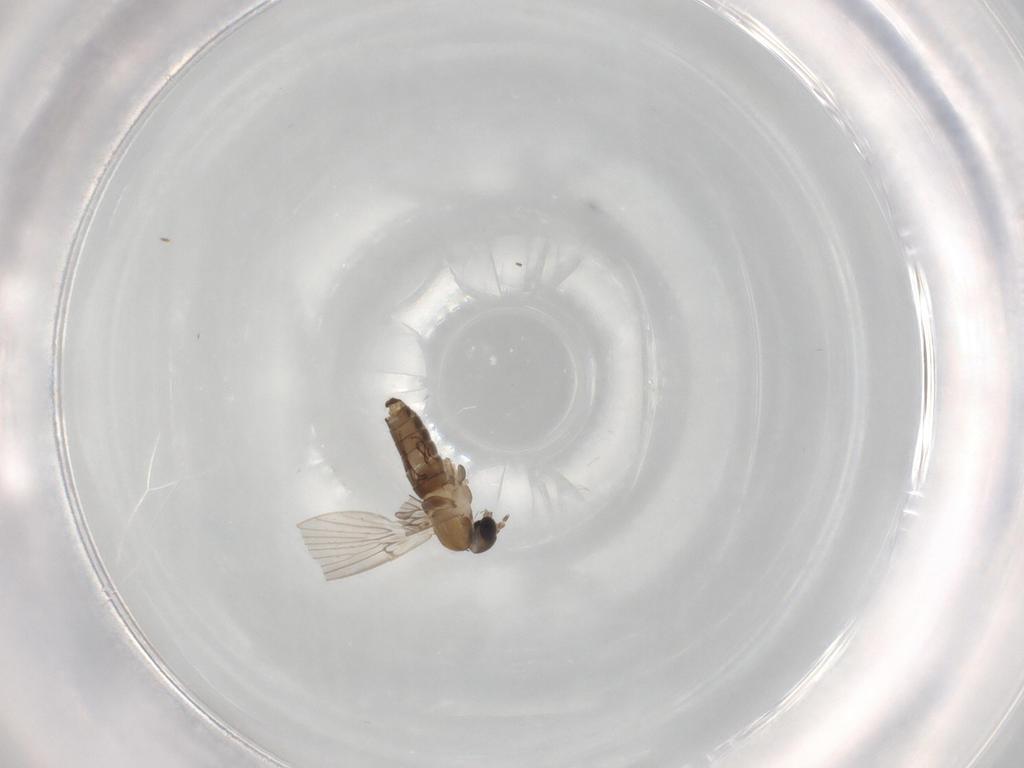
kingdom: Animalia
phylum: Arthropoda
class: Insecta
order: Diptera
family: Psychodidae
